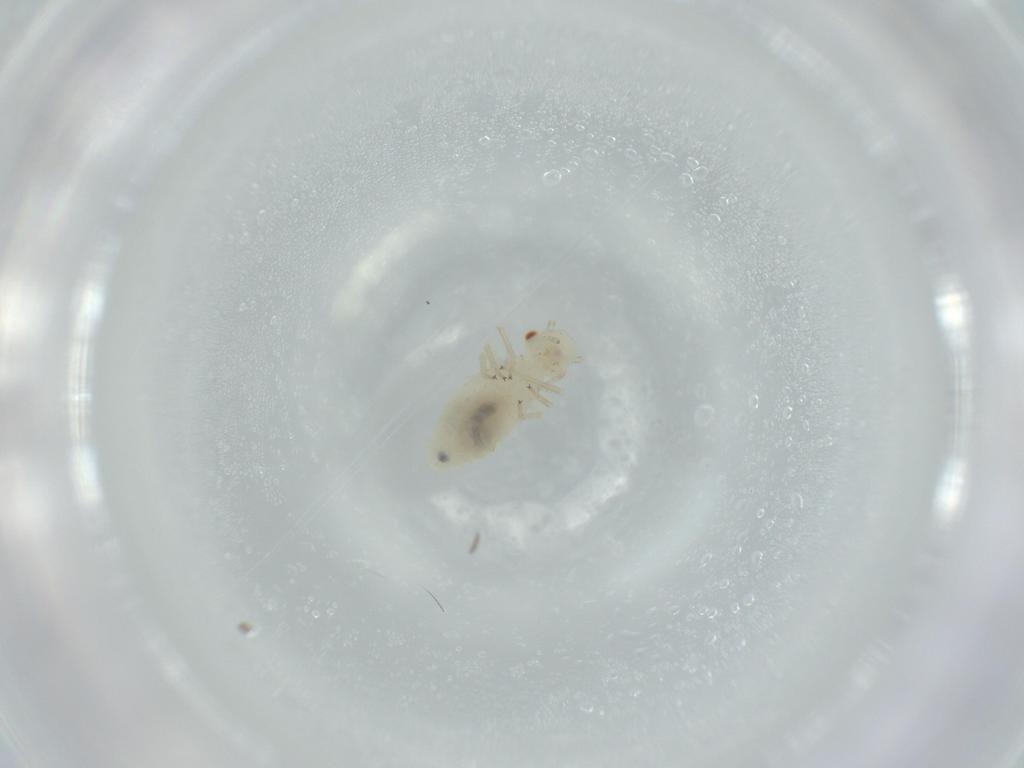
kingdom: Animalia
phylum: Arthropoda
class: Insecta
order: Psocodea
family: Caeciliusidae
